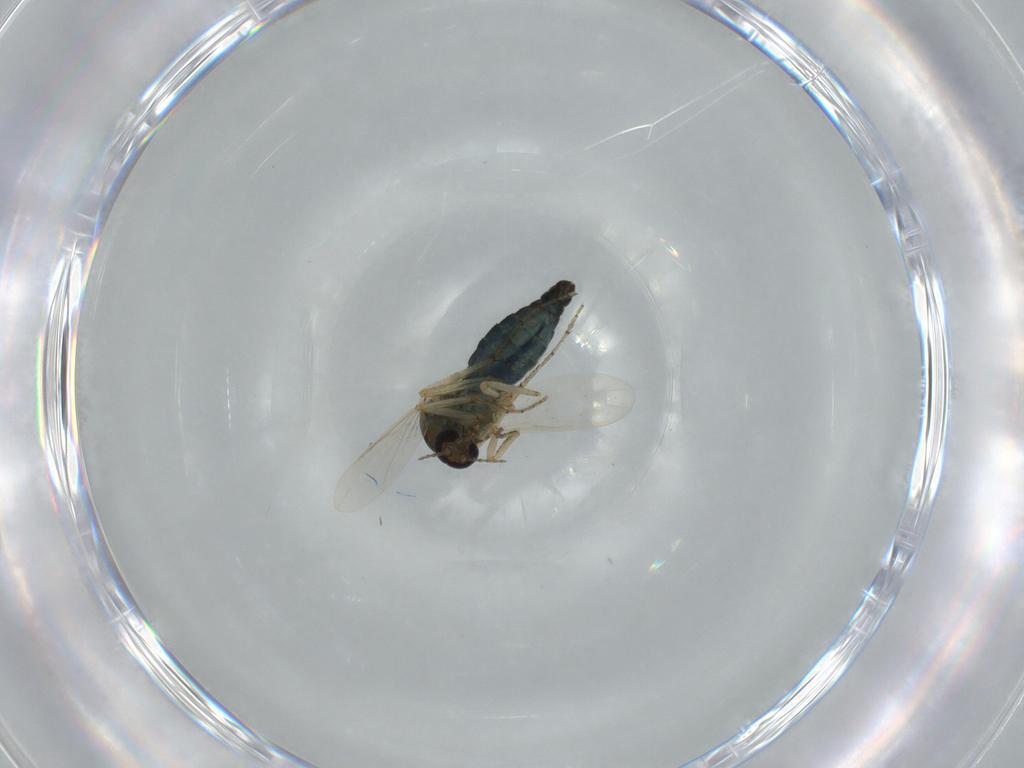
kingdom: Animalia
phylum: Arthropoda
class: Insecta
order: Diptera
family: Ceratopogonidae
